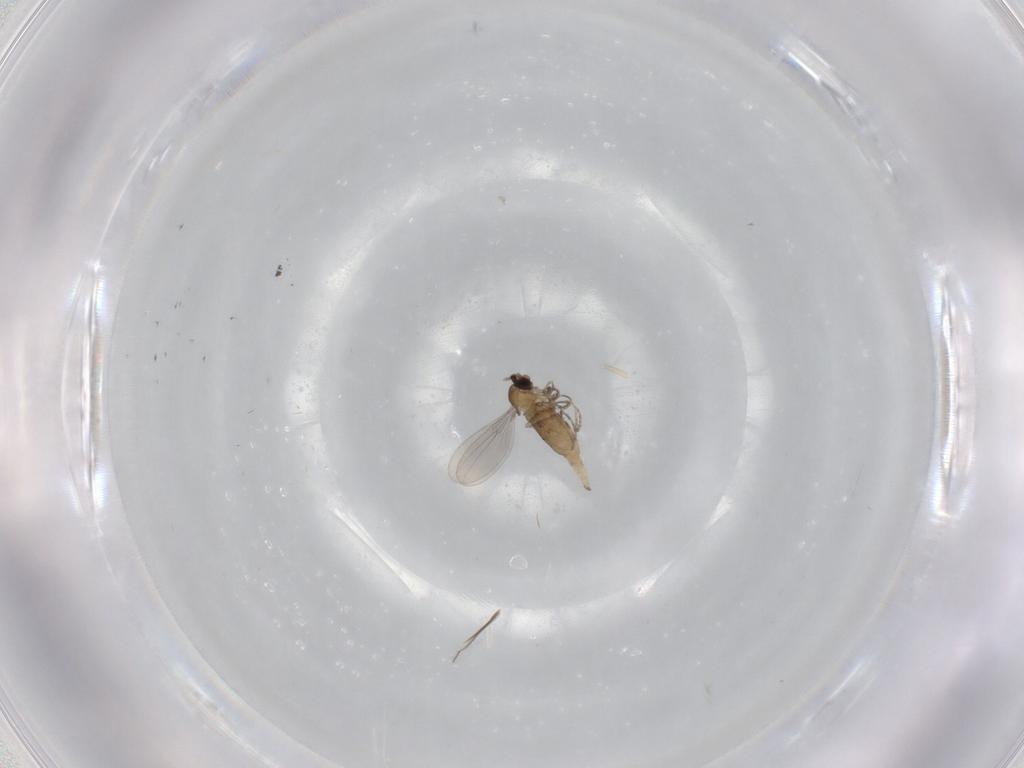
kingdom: Animalia
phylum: Arthropoda
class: Insecta
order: Diptera
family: Cecidomyiidae
